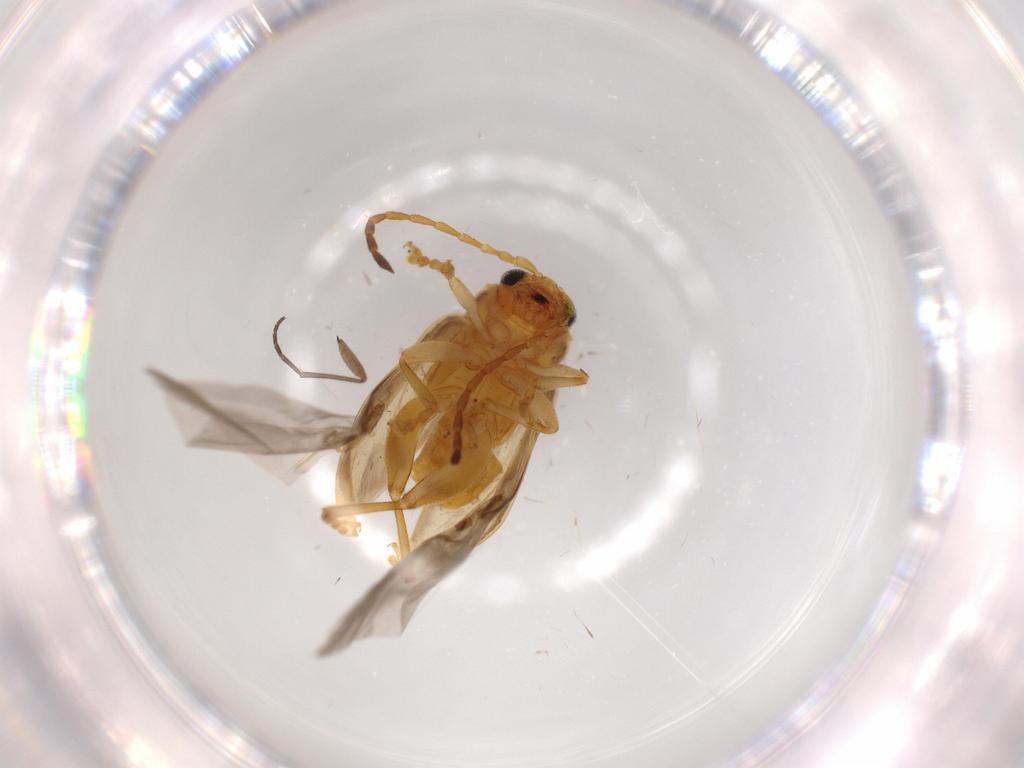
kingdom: Animalia
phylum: Arthropoda
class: Insecta
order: Coleoptera
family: Chrysomelidae
